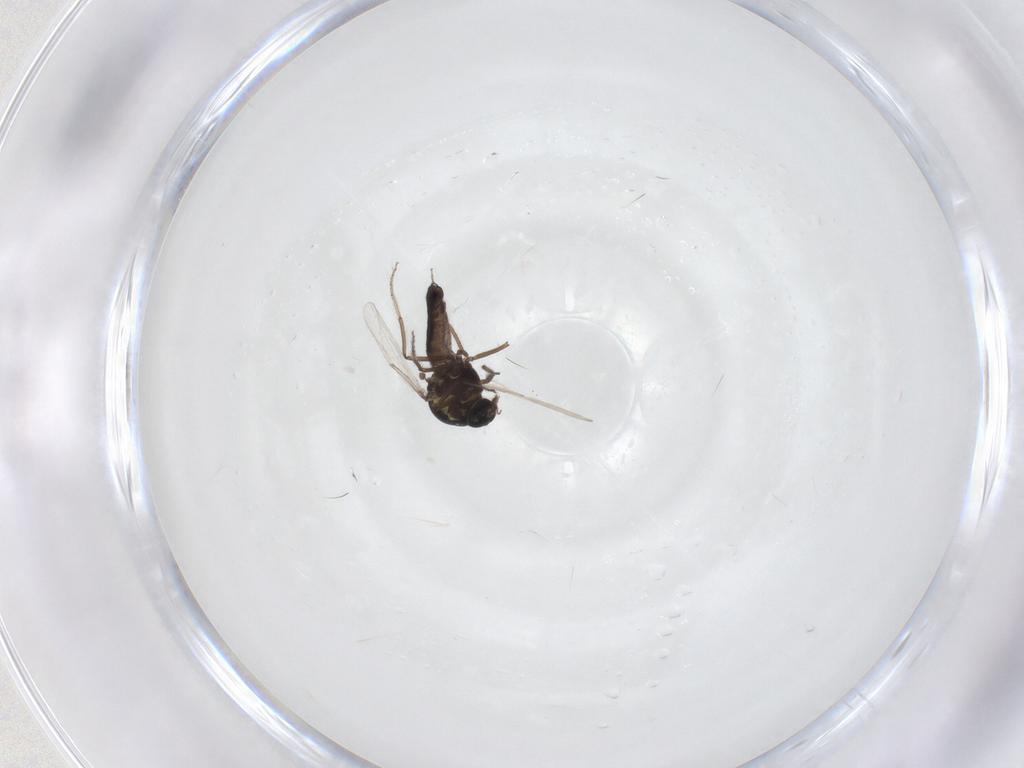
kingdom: Animalia
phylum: Arthropoda
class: Insecta
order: Diptera
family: Ceratopogonidae
